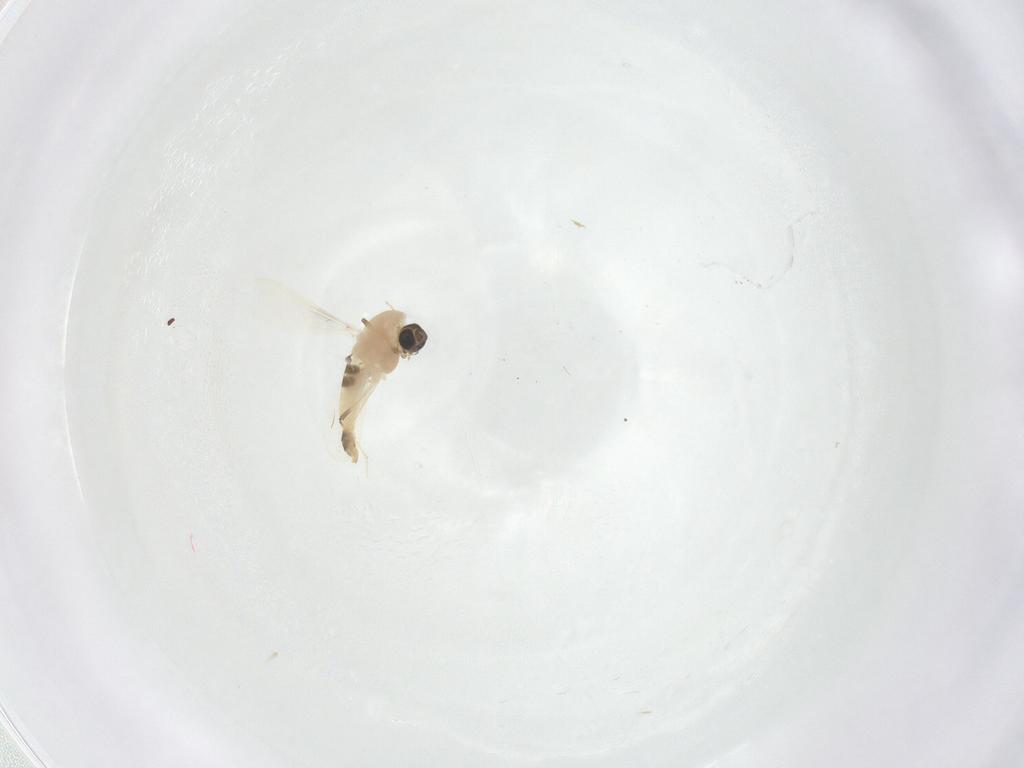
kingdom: Animalia
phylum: Arthropoda
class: Insecta
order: Diptera
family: Chironomidae
